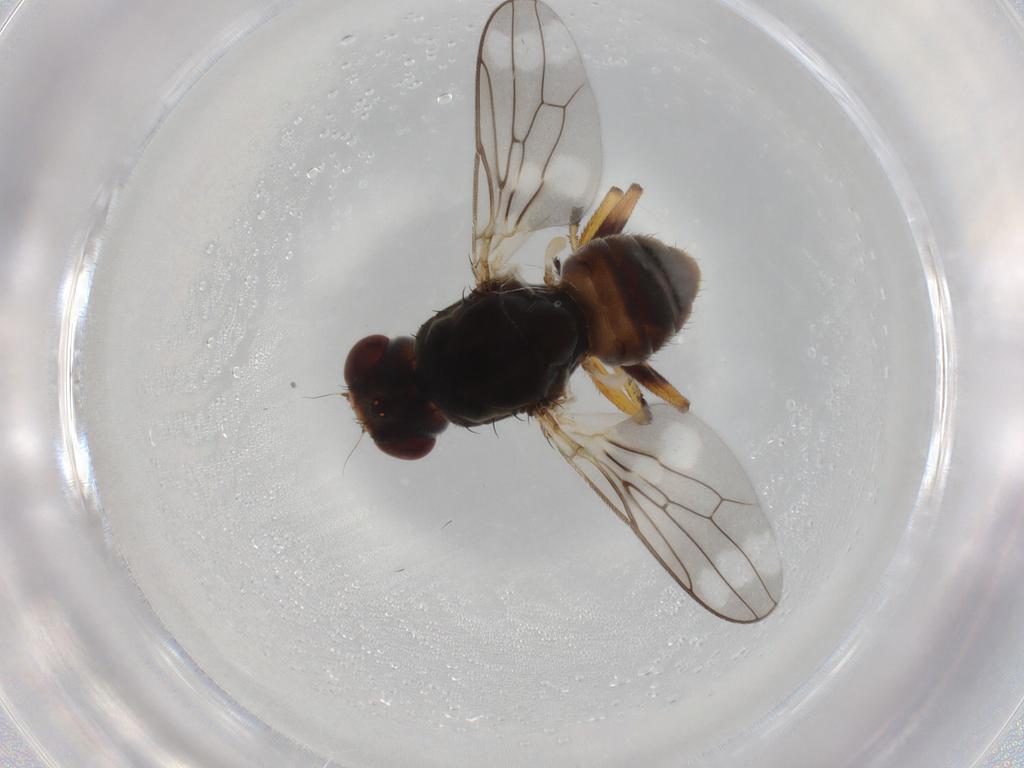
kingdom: Animalia
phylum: Arthropoda
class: Insecta
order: Diptera
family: Chloropidae
